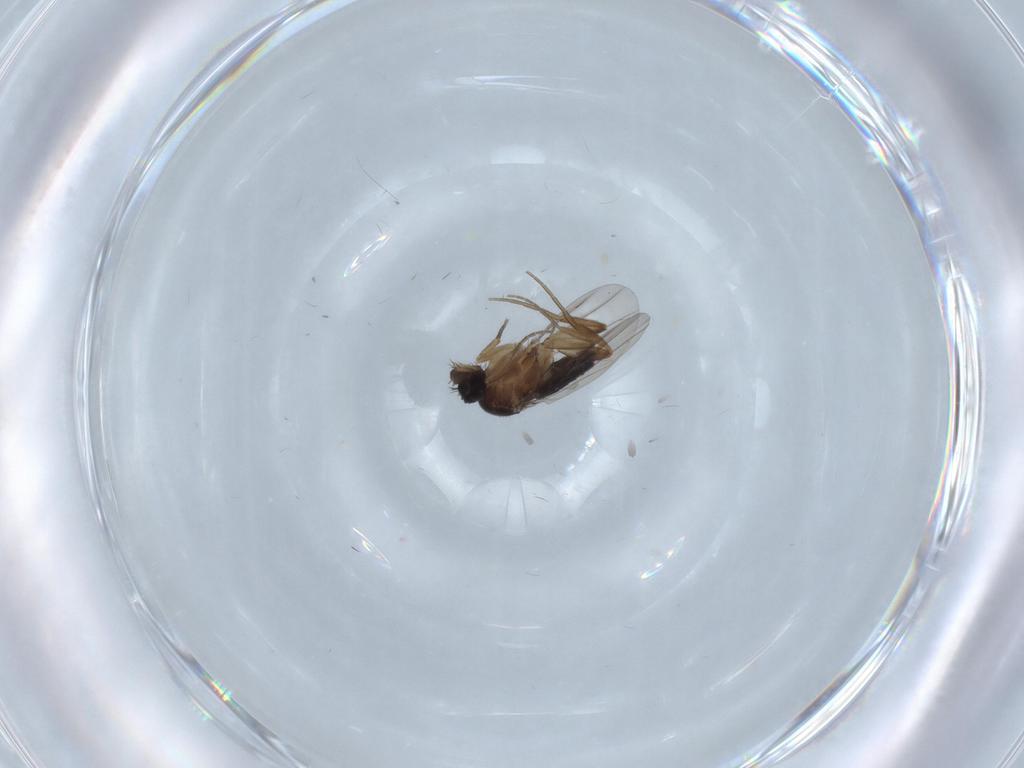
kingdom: Animalia
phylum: Arthropoda
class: Insecta
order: Diptera
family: Phoridae
